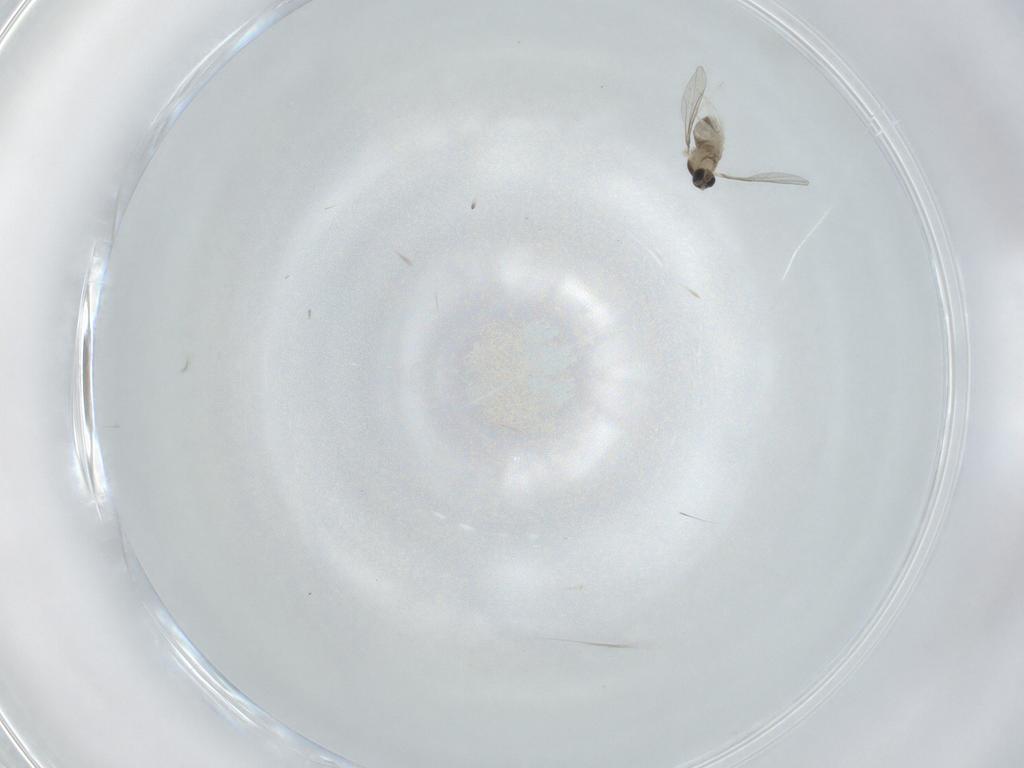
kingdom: Animalia
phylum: Arthropoda
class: Insecta
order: Diptera
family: Cecidomyiidae
